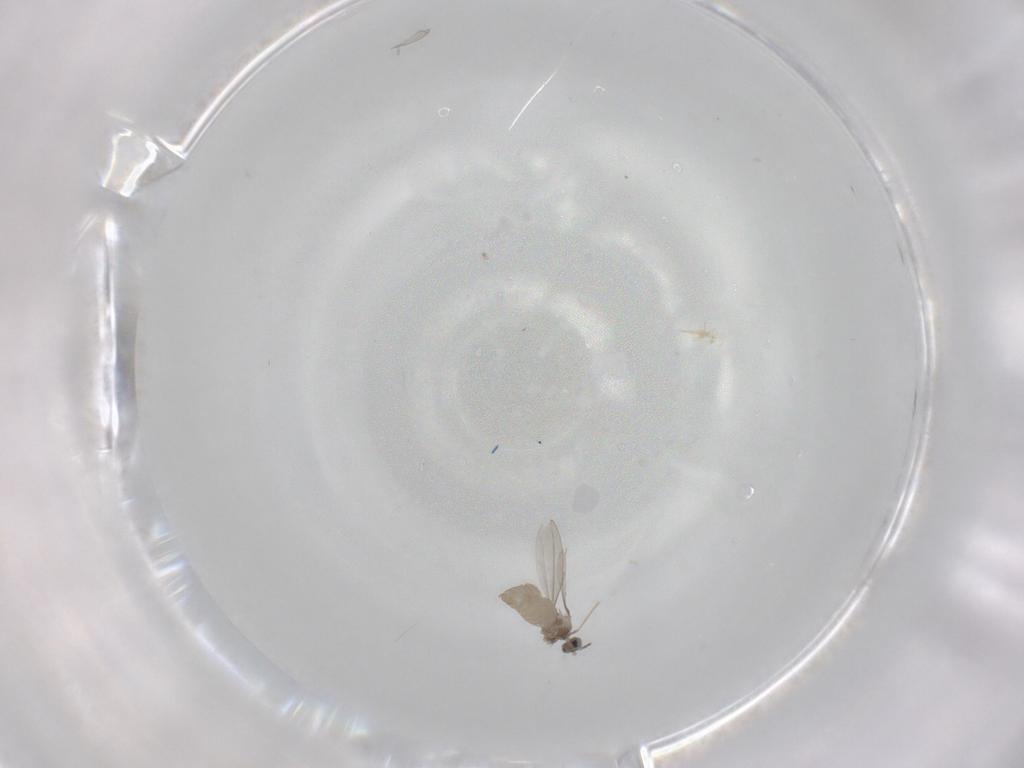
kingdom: Animalia
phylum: Arthropoda
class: Insecta
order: Diptera
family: Cecidomyiidae
